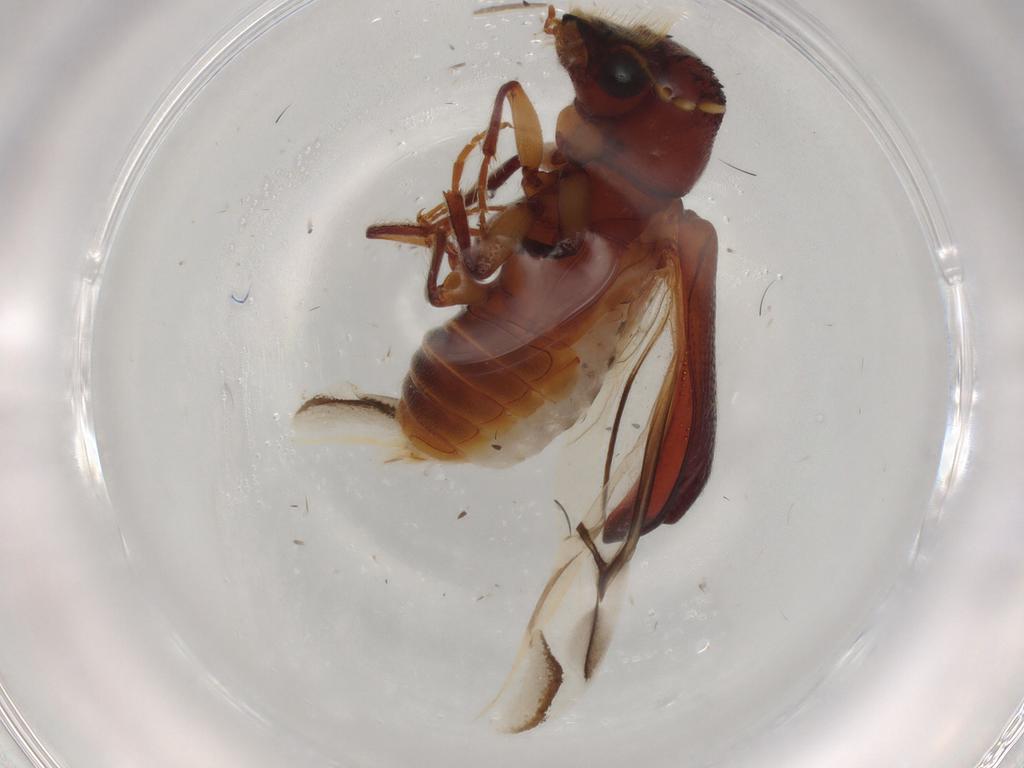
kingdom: Animalia
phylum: Arthropoda
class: Insecta
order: Coleoptera
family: Bostrichidae
